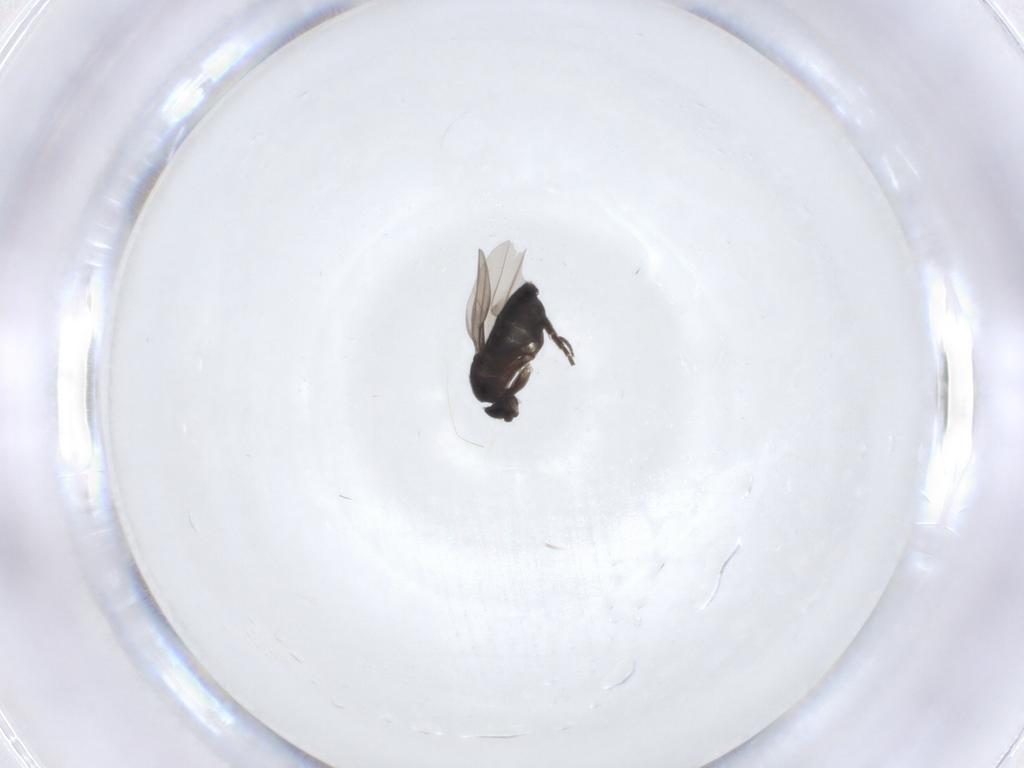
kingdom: Animalia
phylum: Arthropoda
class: Insecta
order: Diptera
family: Phoridae
